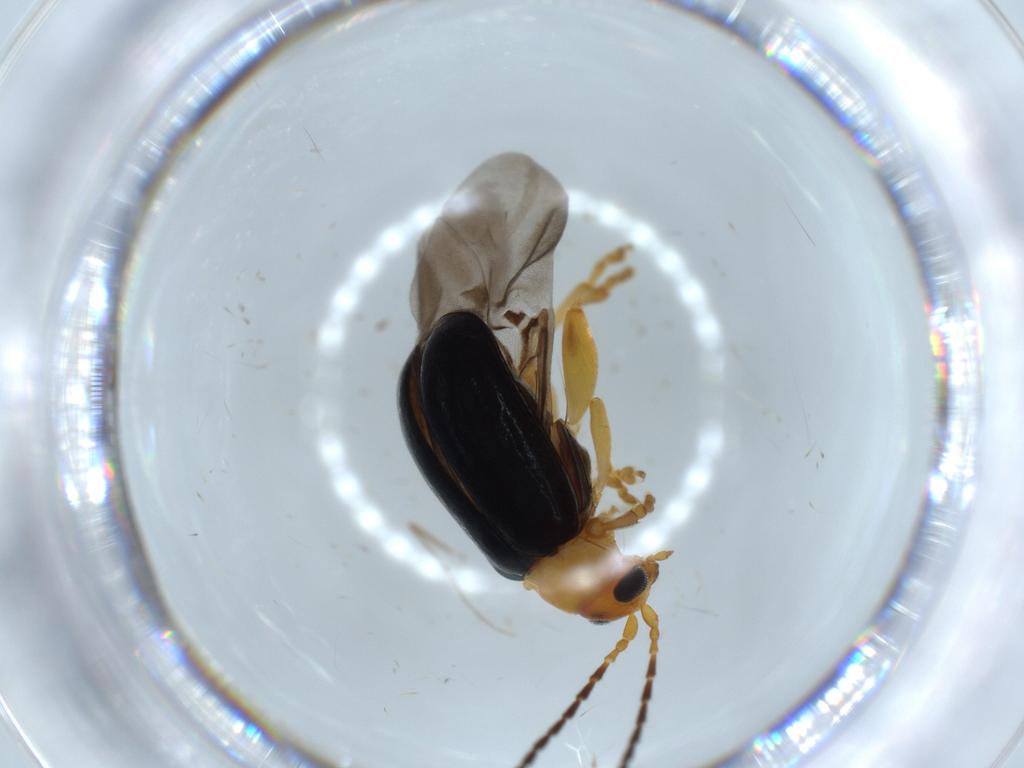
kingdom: Animalia
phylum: Arthropoda
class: Insecta
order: Coleoptera
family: Chrysomelidae
